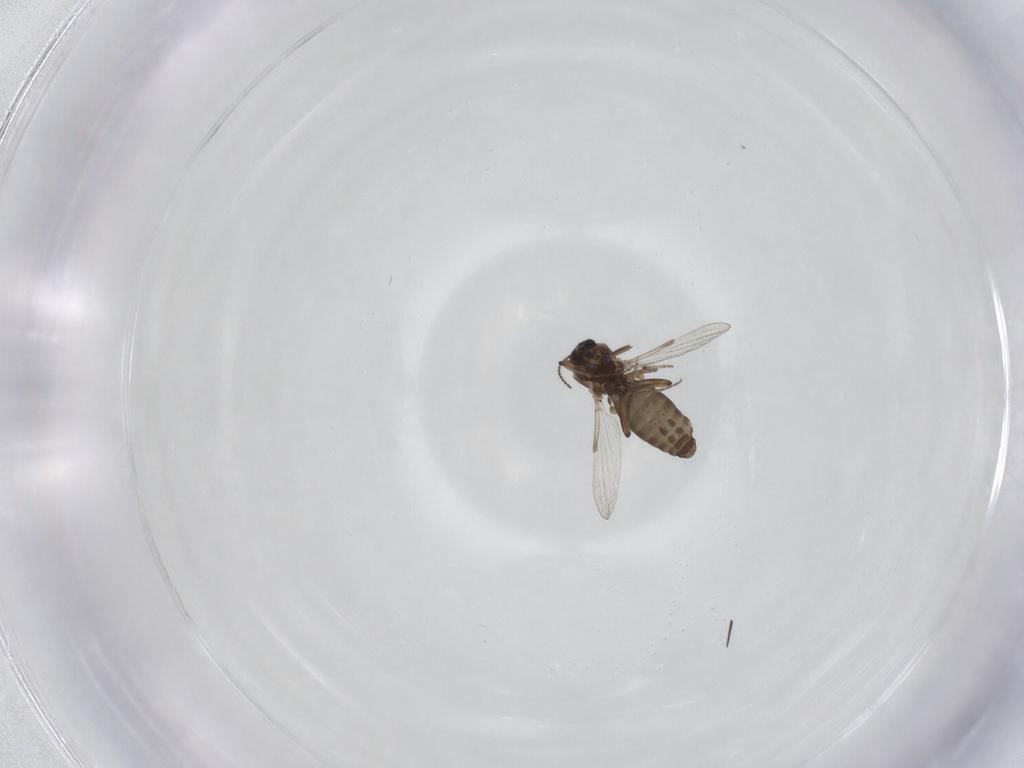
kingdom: Animalia
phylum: Arthropoda
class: Insecta
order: Diptera
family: Ceratopogonidae
